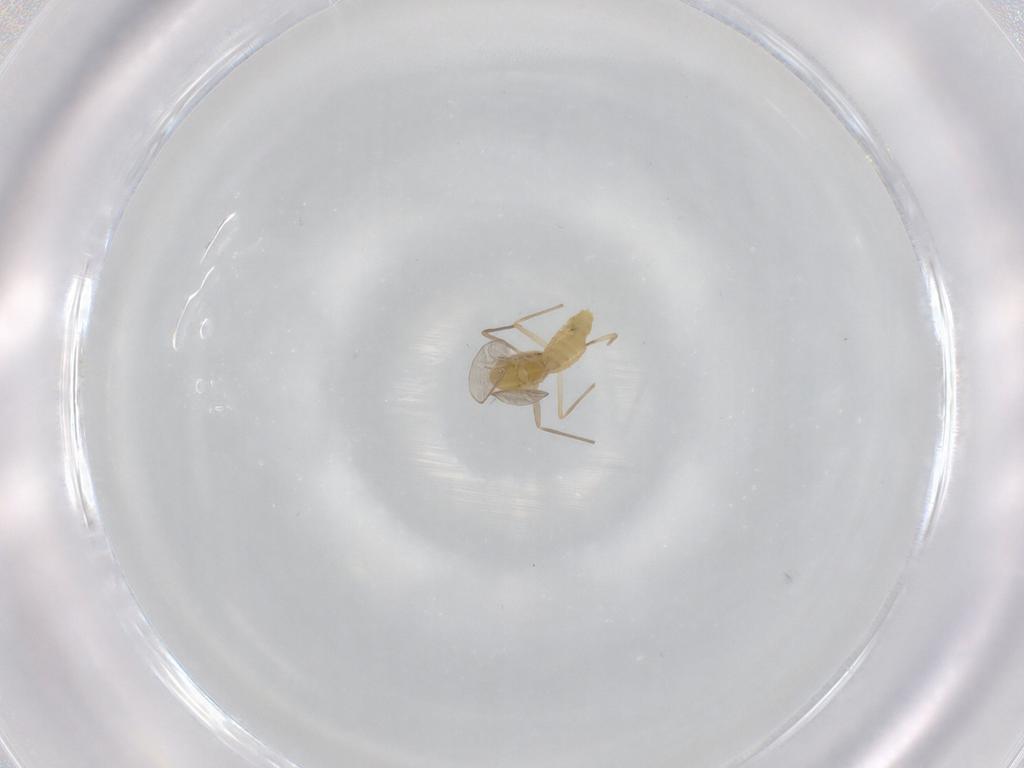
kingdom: Animalia
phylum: Arthropoda
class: Insecta
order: Diptera
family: Chironomidae
